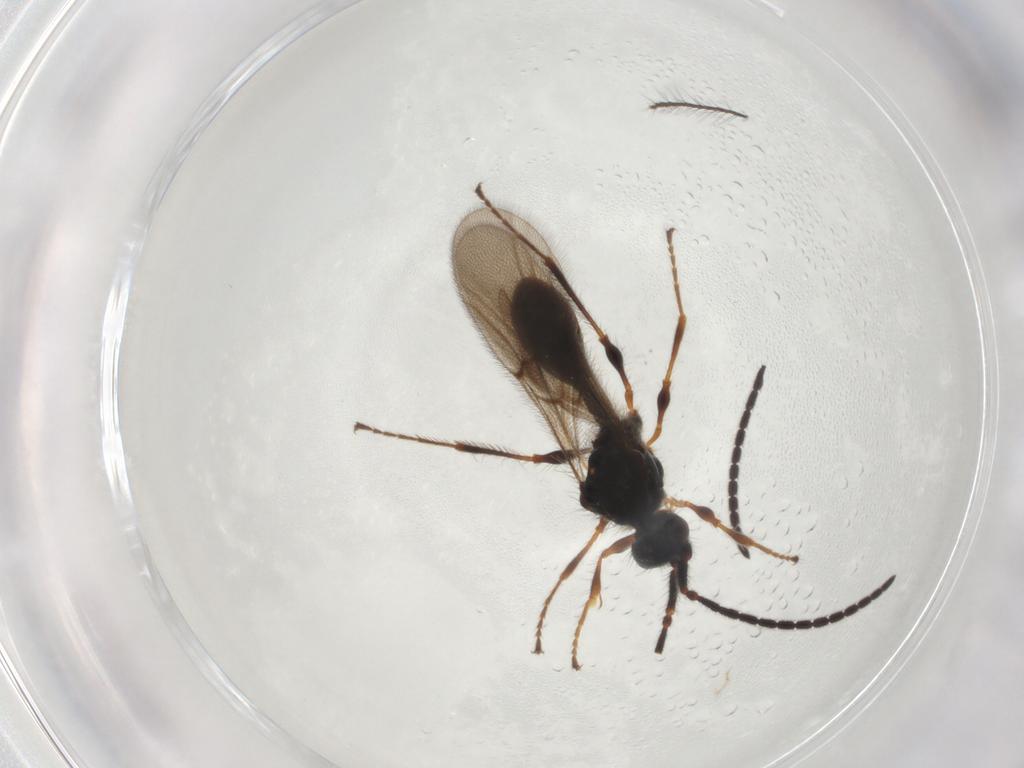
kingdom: Animalia
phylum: Arthropoda
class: Insecta
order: Hymenoptera
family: Diapriidae
